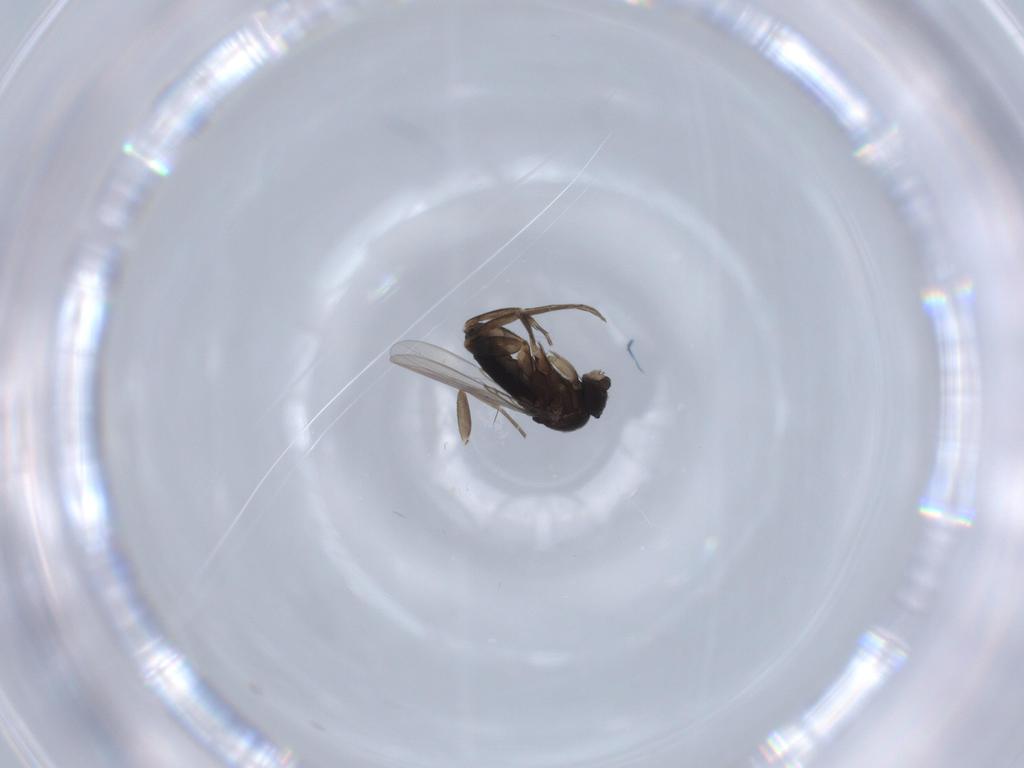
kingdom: Animalia
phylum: Arthropoda
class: Insecta
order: Diptera
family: Phoridae
